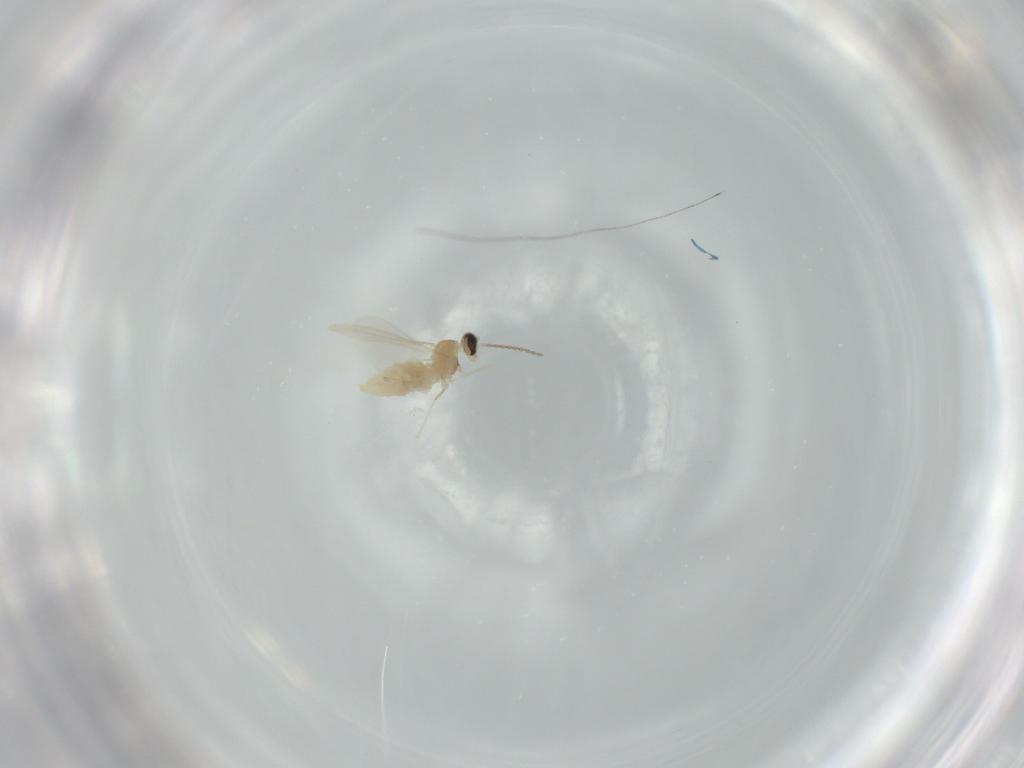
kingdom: Animalia
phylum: Arthropoda
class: Insecta
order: Diptera
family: Cecidomyiidae
